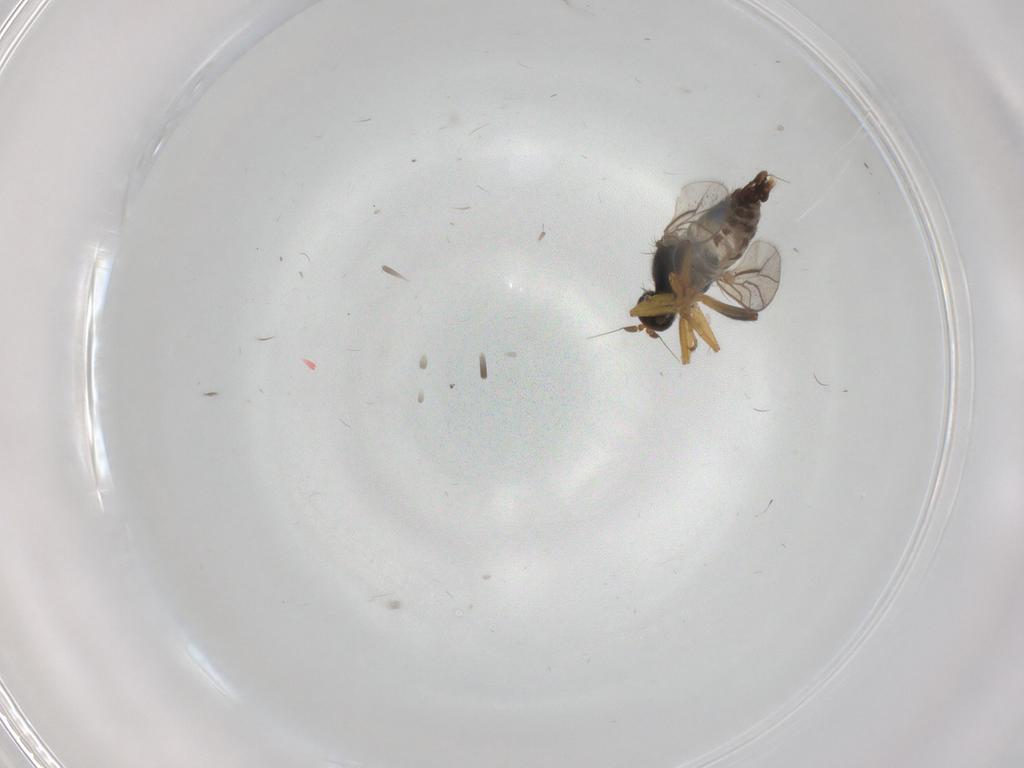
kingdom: Animalia
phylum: Arthropoda
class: Insecta
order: Diptera
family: Hybotidae
